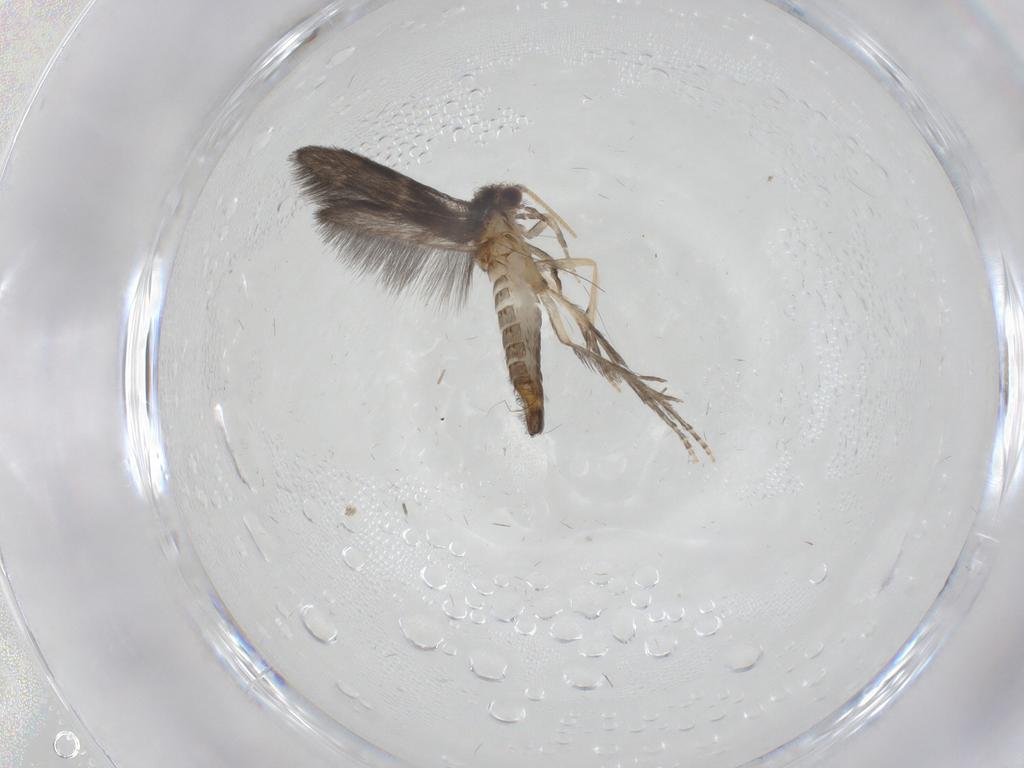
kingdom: Animalia
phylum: Arthropoda
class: Insecta
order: Trichoptera
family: Hydroptilidae
